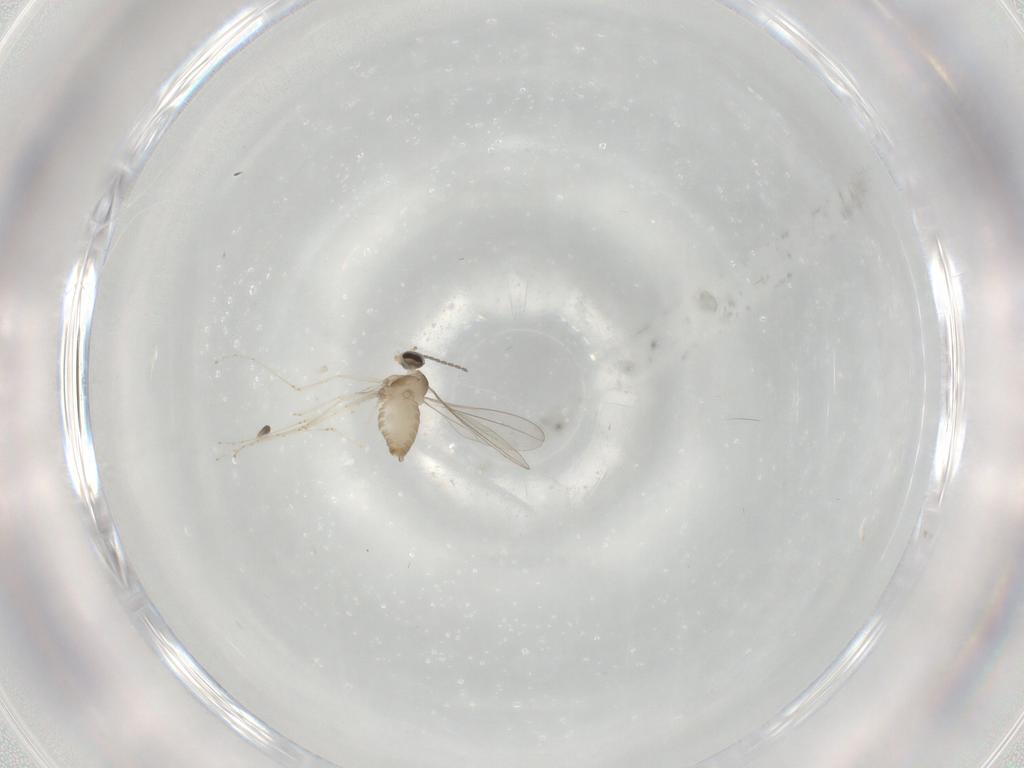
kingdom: Animalia
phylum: Arthropoda
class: Insecta
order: Diptera
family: Cecidomyiidae
